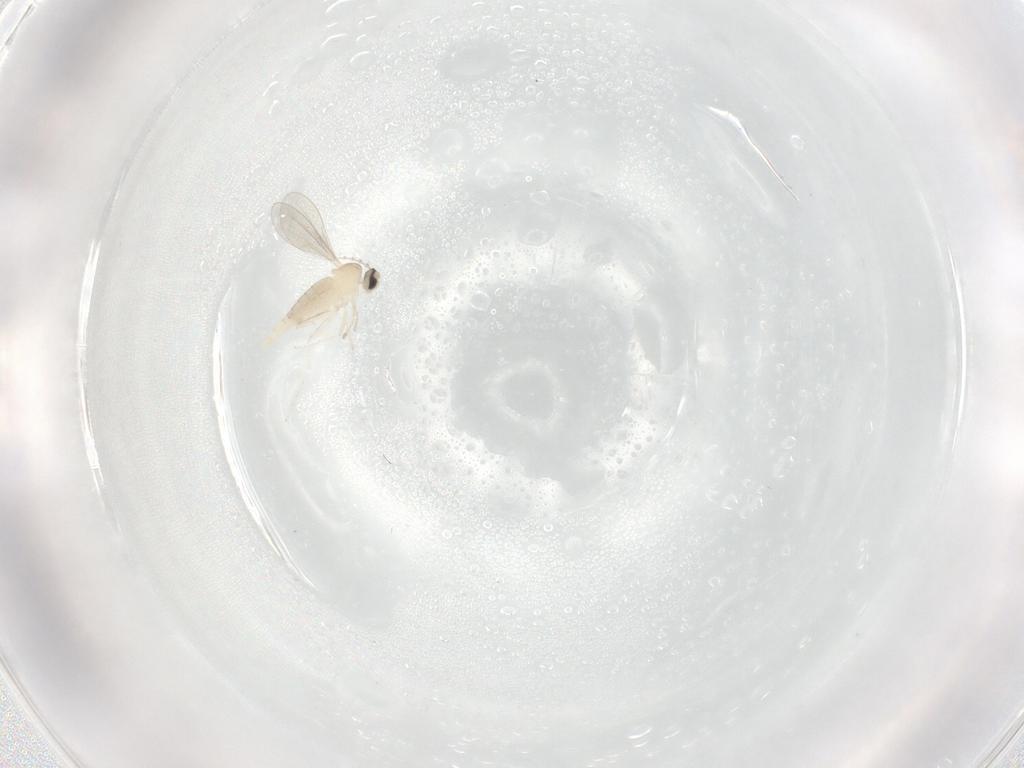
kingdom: Animalia
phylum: Arthropoda
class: Insecta
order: Diptera
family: Cecidomyiidae
